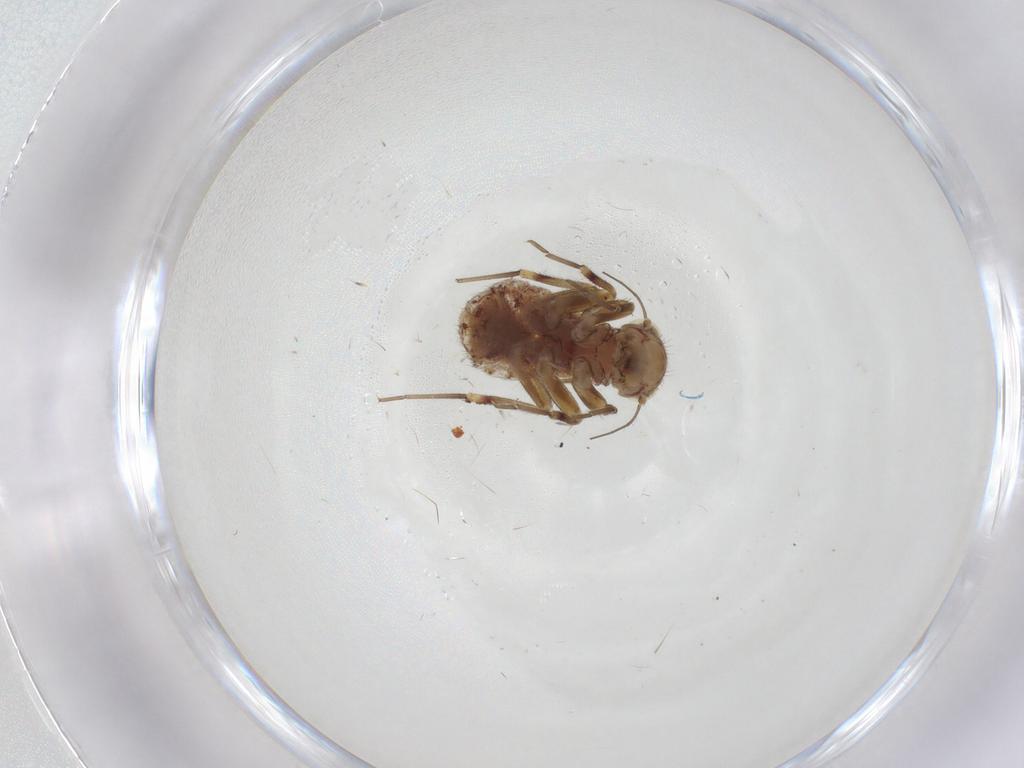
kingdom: Animalia
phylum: Arthropoda
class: Insecta
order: Psocodea
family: Philotarsidae
